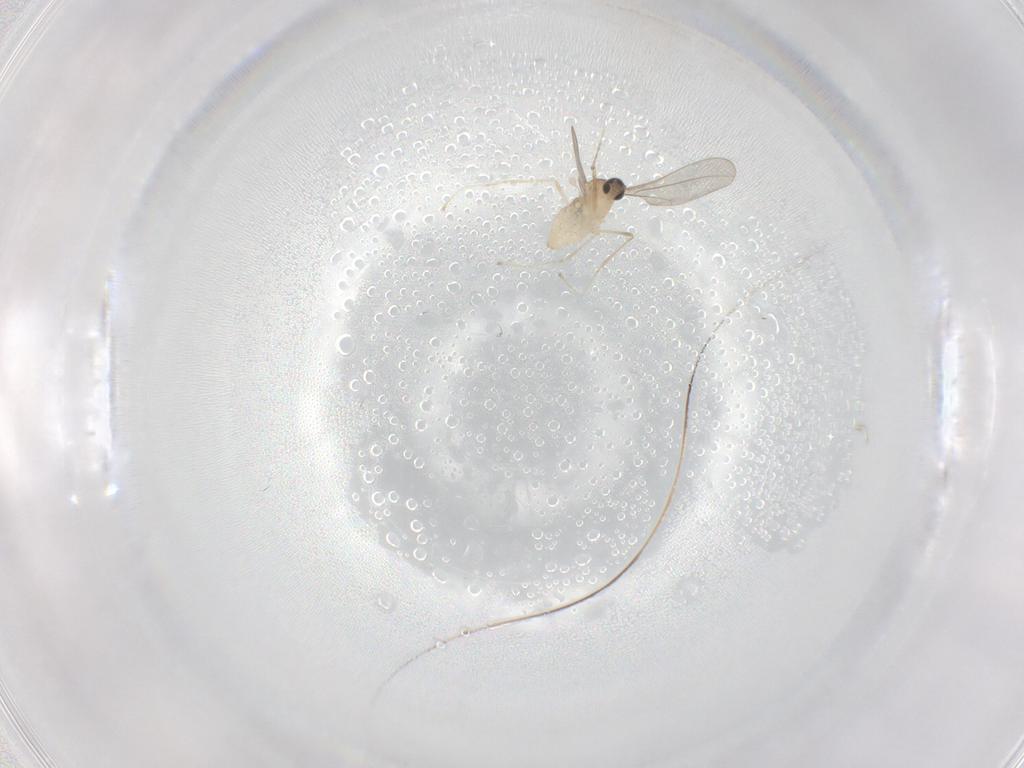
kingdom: Animalia
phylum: Arthropoda
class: Insecta
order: Diptera
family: Cecidomyiidae
